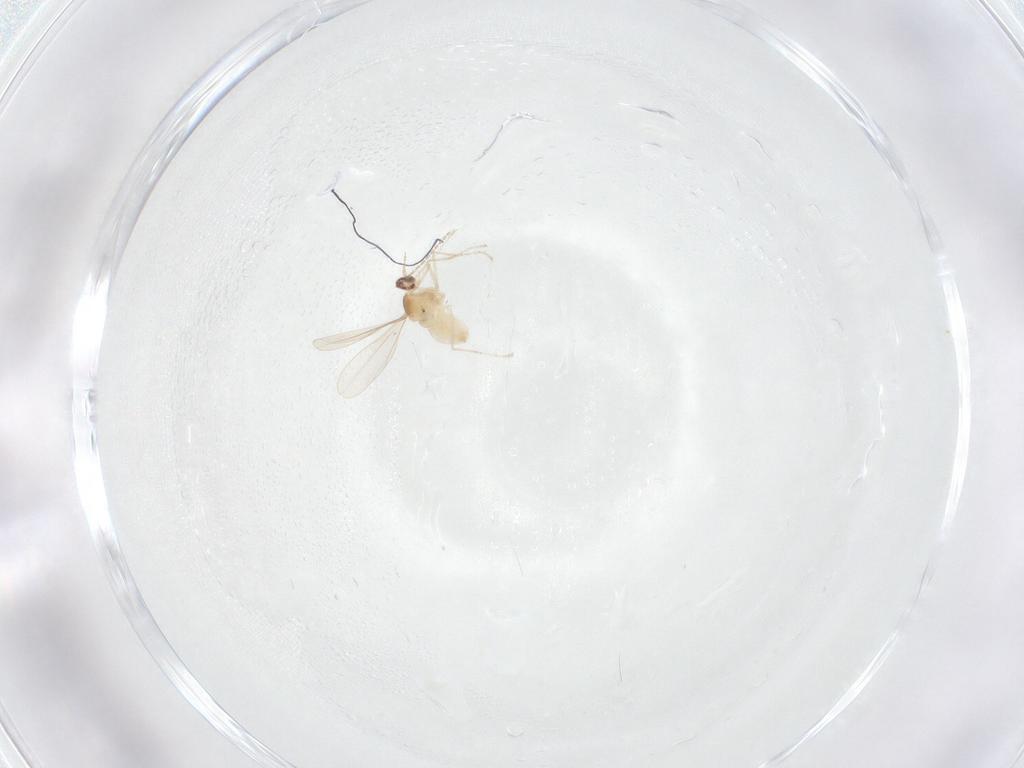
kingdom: Animalia
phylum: Arthropoda
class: Insecta
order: Diptera
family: Cecidomyiidae
